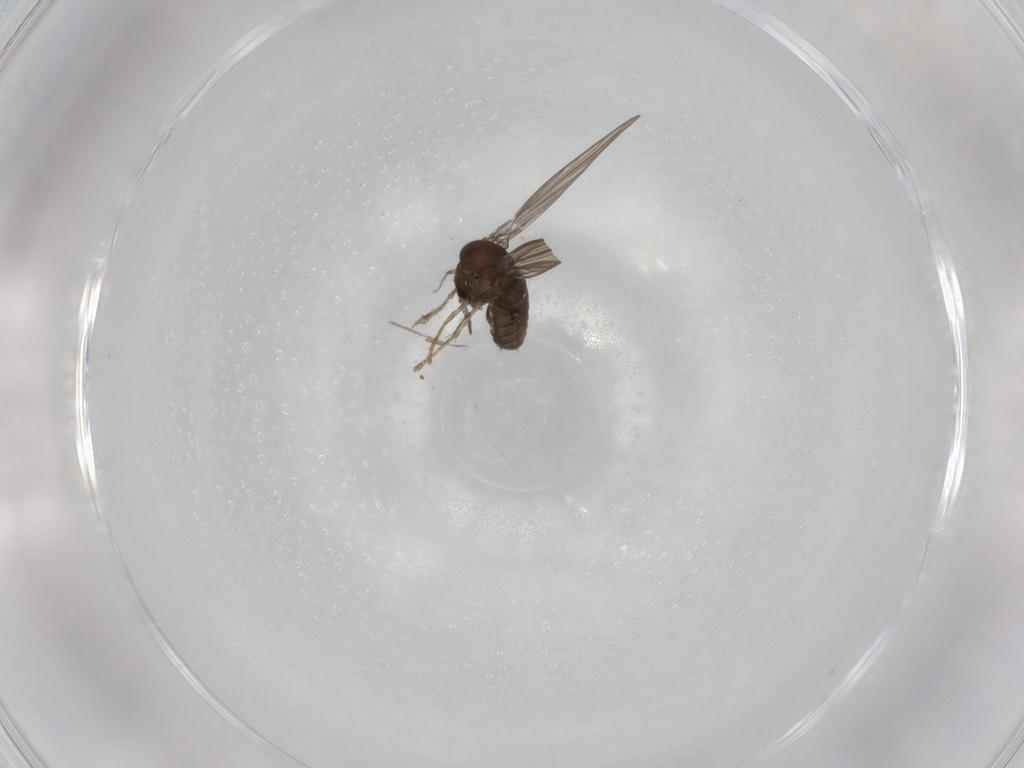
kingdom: Animalia
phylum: Arthropoda
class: Insecta
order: Diptera
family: Psychodidae
